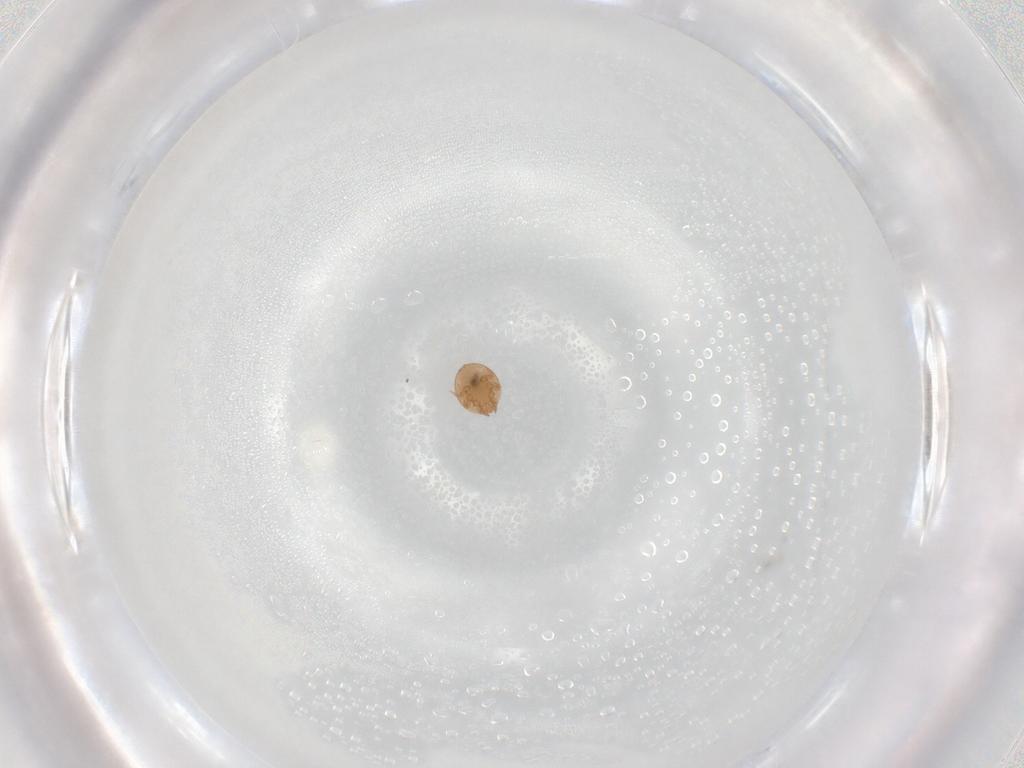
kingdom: Animalia
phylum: Arthropoda
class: Arachnida
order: Mesostigmata
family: Trematuridae
